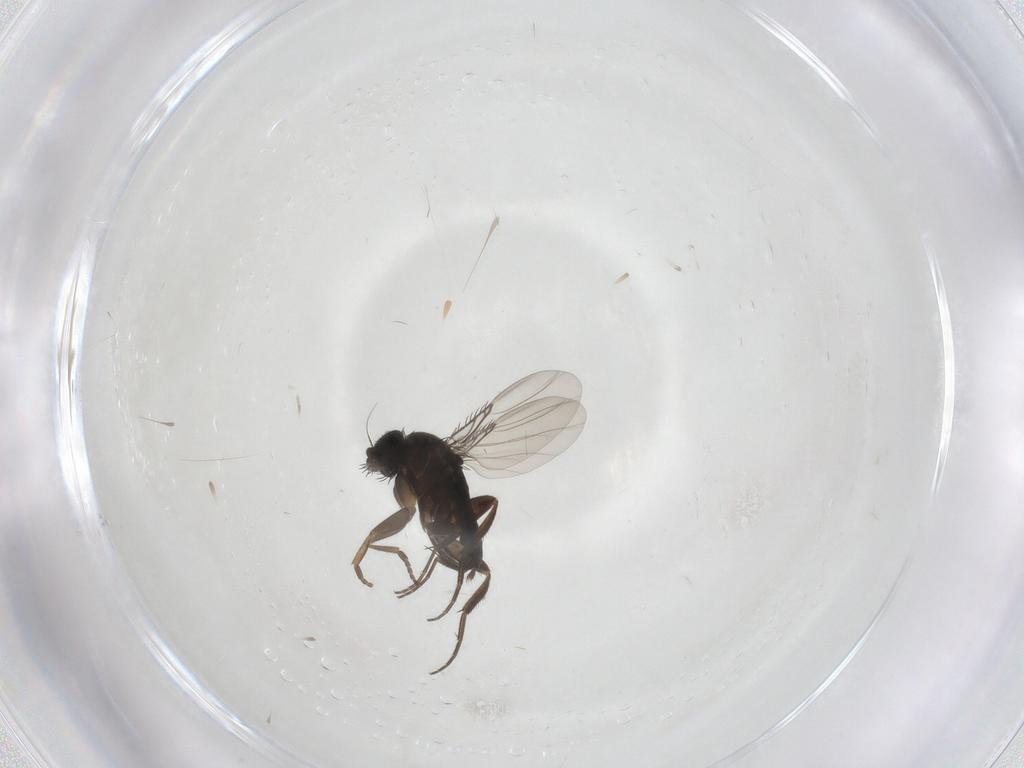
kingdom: Animalia
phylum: Arthropoda
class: Insecta
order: Diptera
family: Phoridae
